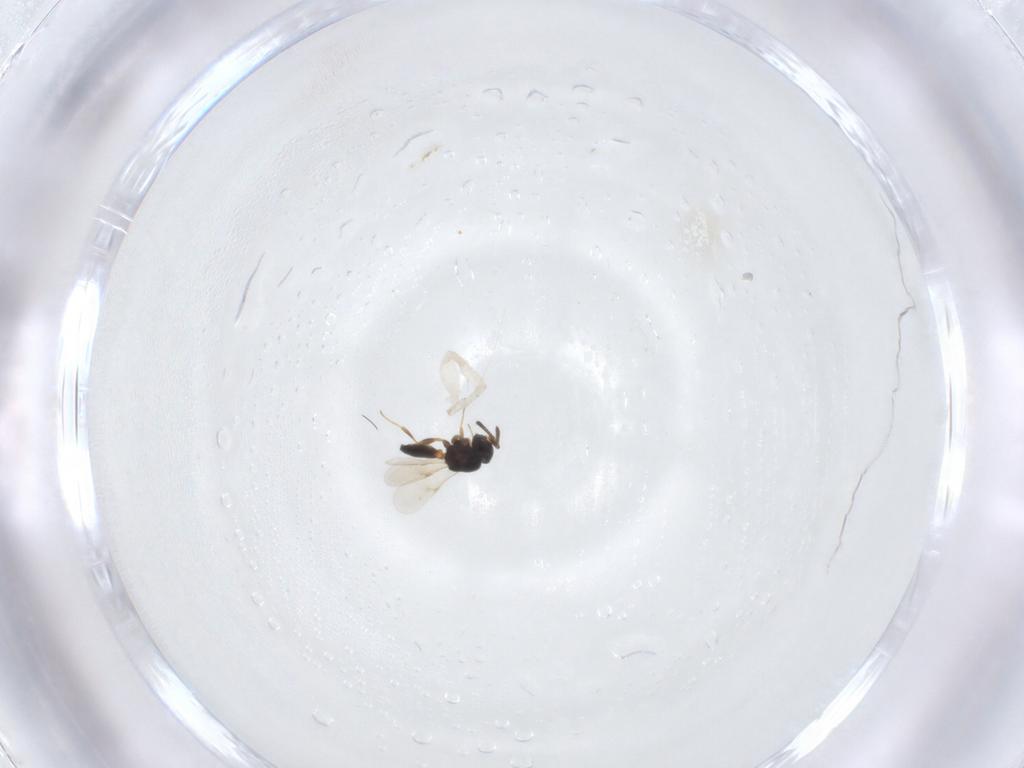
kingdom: Animalia
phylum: Arthropoda
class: Insecta
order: Hymenoptera
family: Scelionidae
